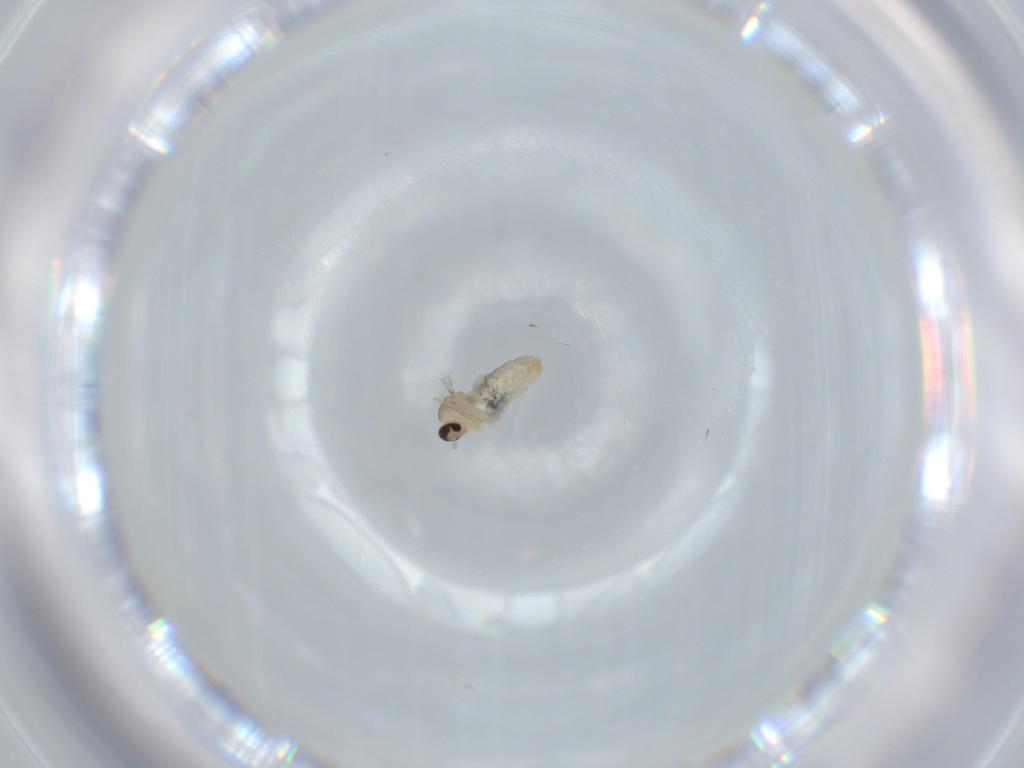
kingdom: Animalia
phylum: Arthropoda
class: Insecta
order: Diptera
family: Cecidomyiidae
